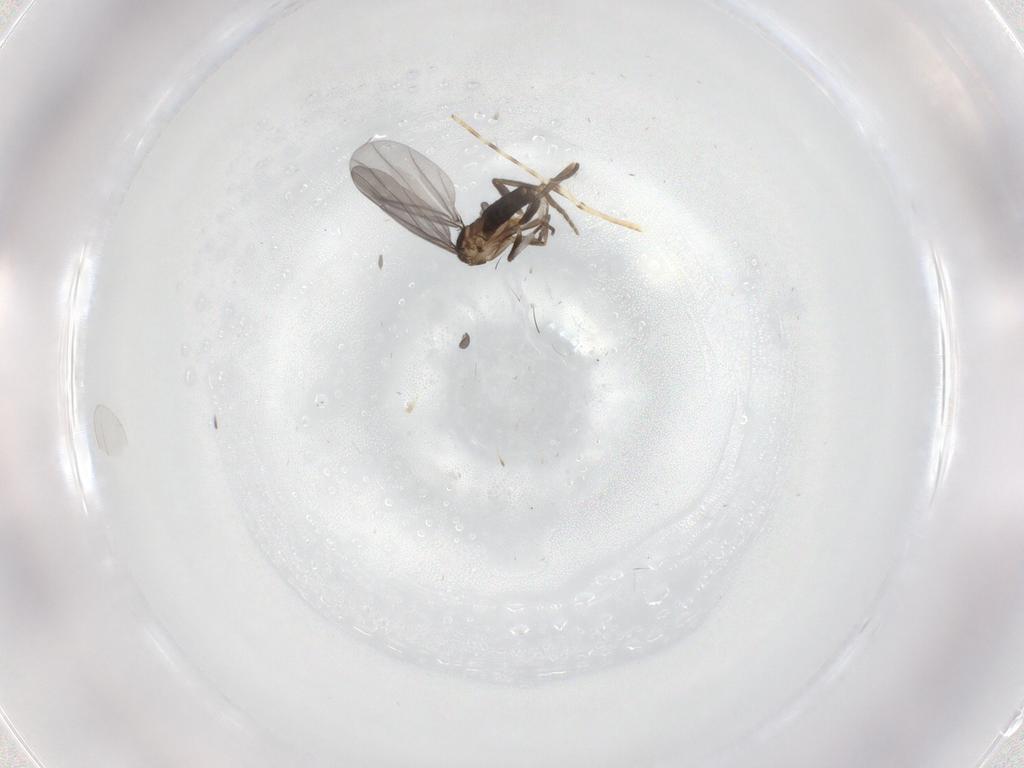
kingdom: Animalia
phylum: Arthropoda
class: Insecta
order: Diptera
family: Phoridae
